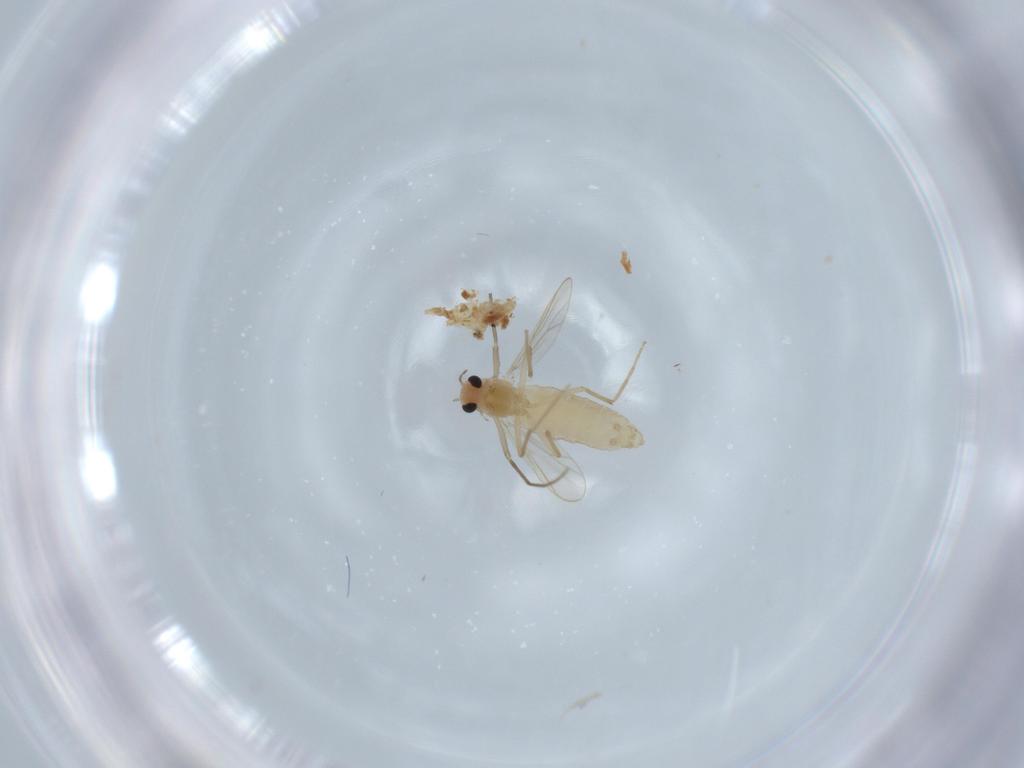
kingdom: Animalia
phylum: Arthropoda
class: Insecta
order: Diptera
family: Chironomidae
